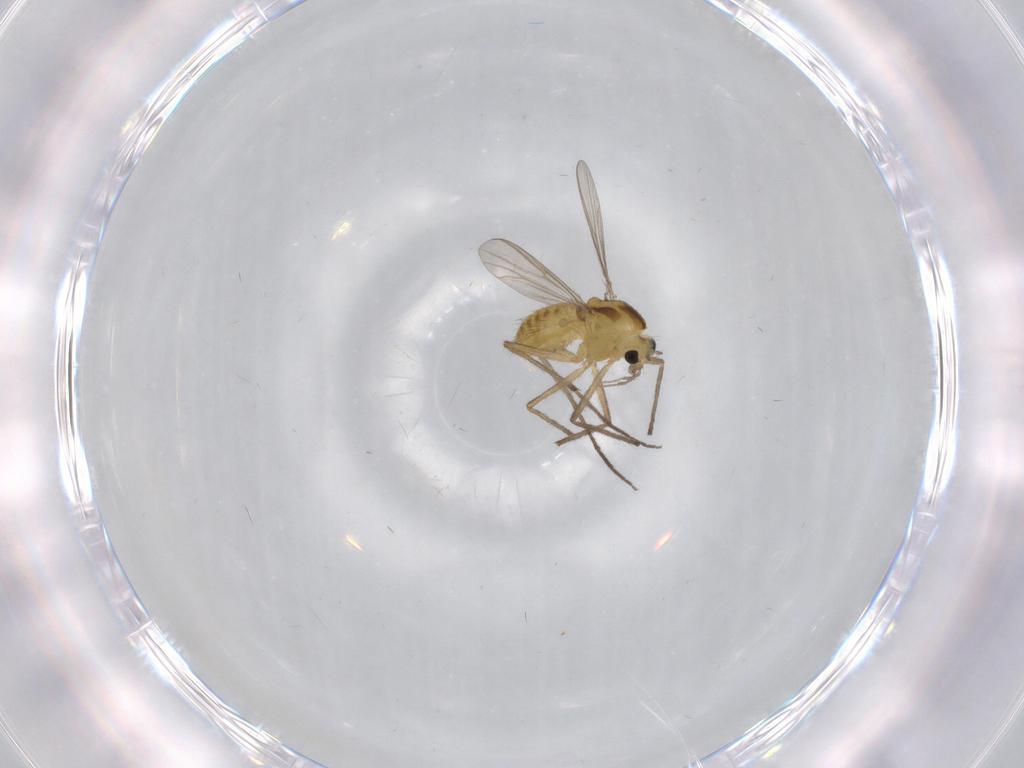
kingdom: Animalia
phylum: Arthropoda
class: Insecta
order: Diptera
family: Chironomidae
